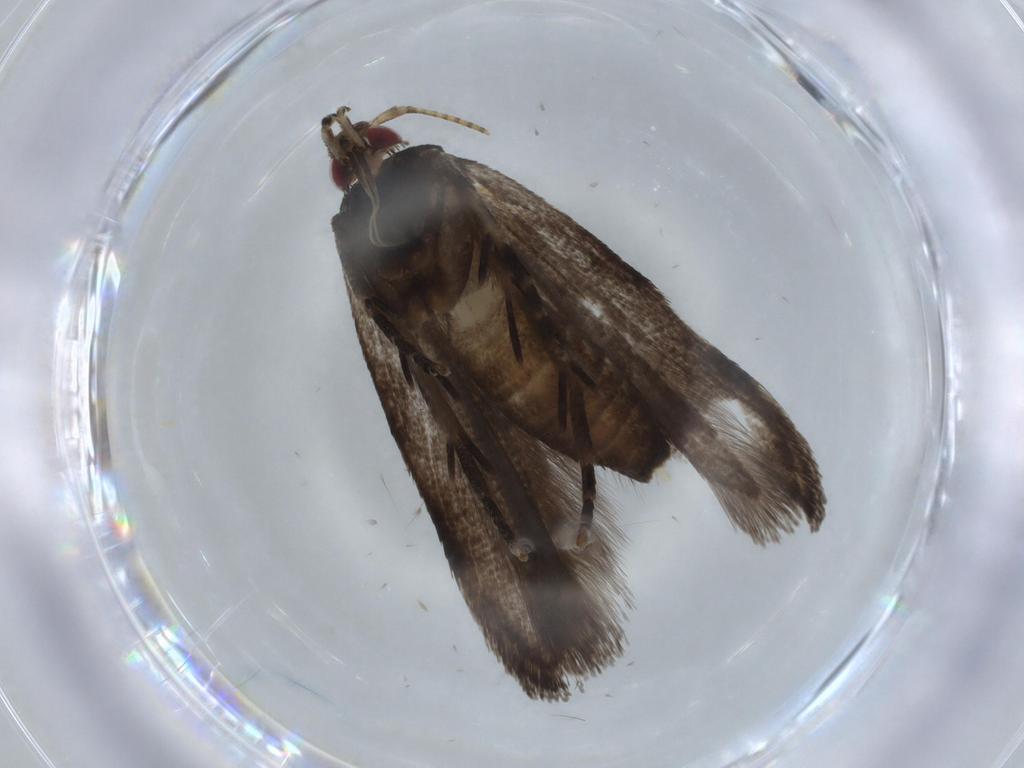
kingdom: Animalia
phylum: Arthropoda
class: Insecta
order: Lepidoptera
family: Cosmopterigidae
